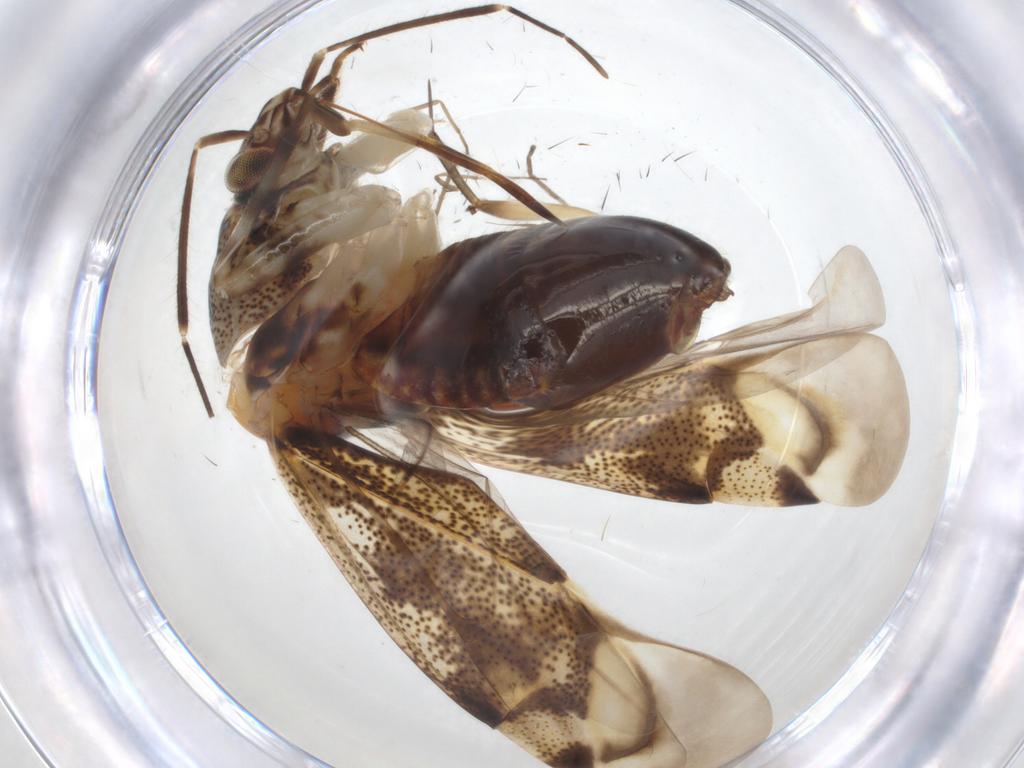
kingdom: Animalia
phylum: Arthropoda
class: Insecta
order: Hemiptera
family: Miridae
